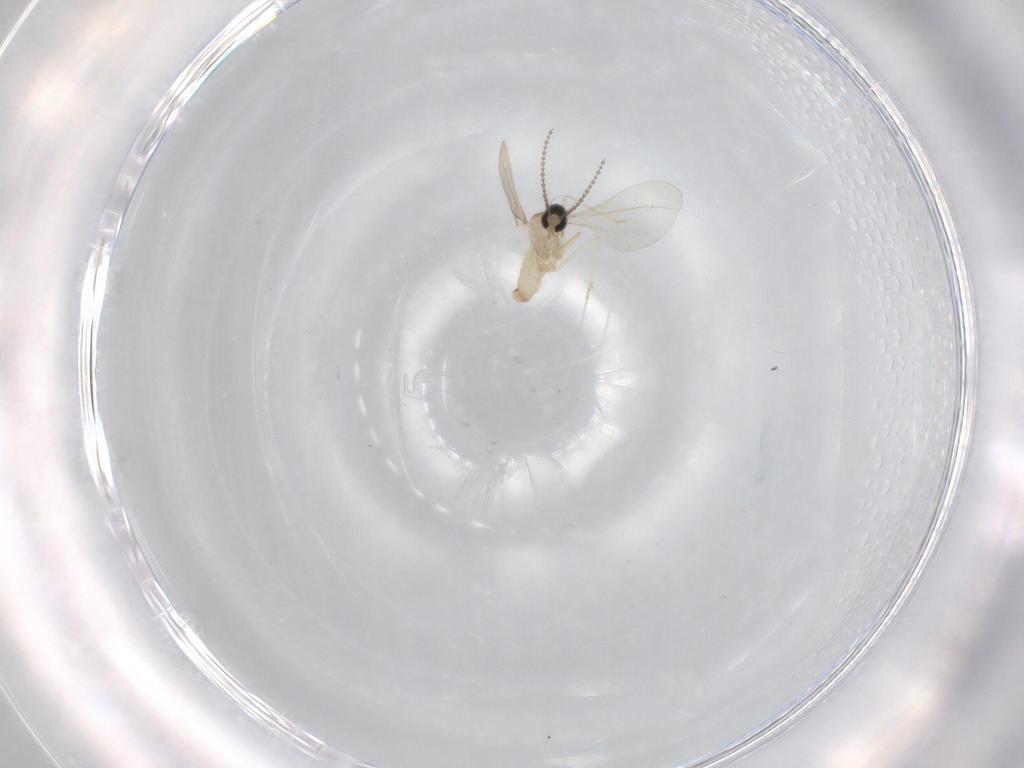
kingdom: Animalia
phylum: Arthropoda
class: Insecta
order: Diptera
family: Cecidomyiidae
